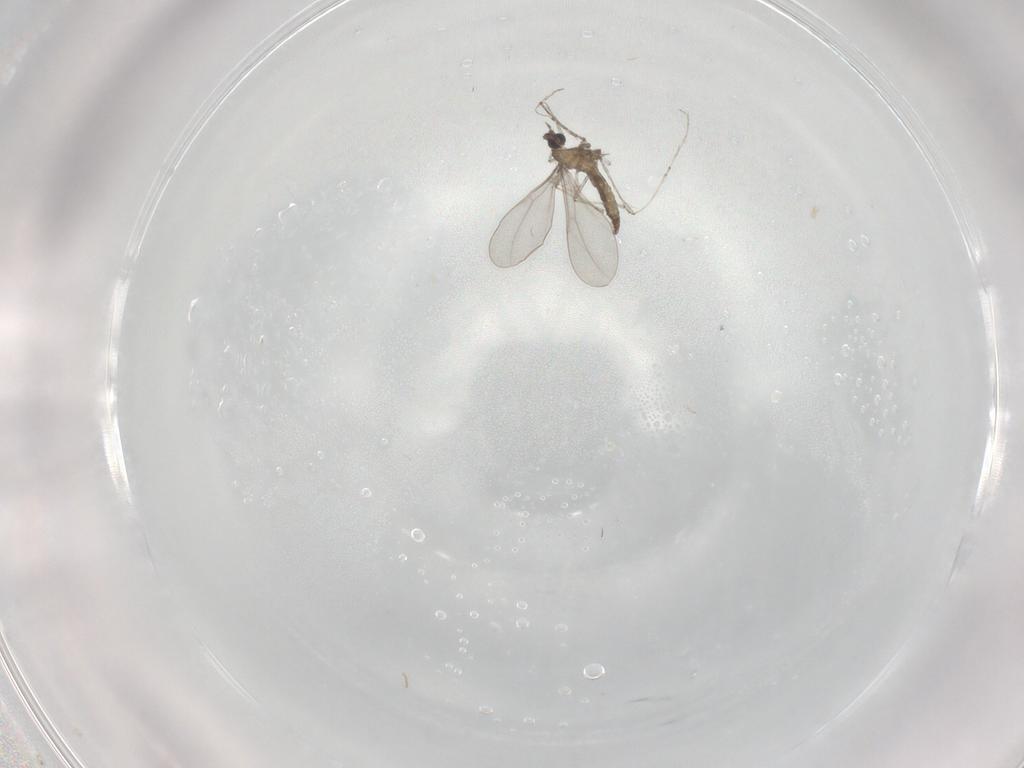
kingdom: Animalia
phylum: Arthropoda
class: Insecta
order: Diptera
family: Cecidomyiidae
